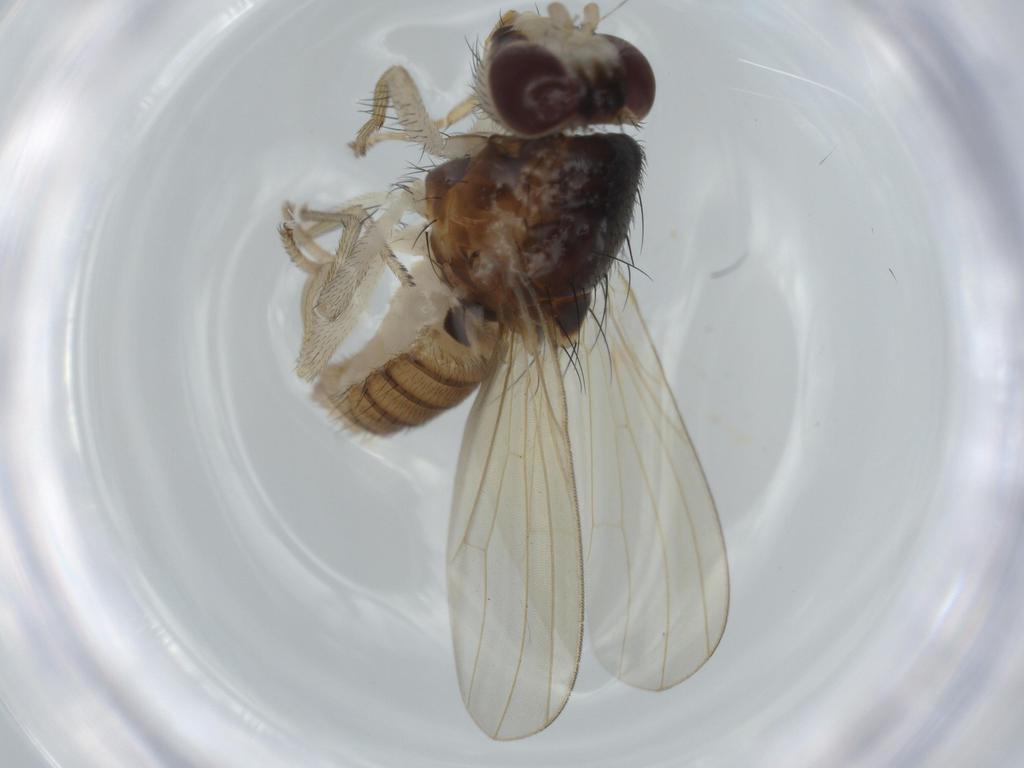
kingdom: Animalia
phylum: Arthropoda
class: Insecta
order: Diptera
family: Lauxaniidae
